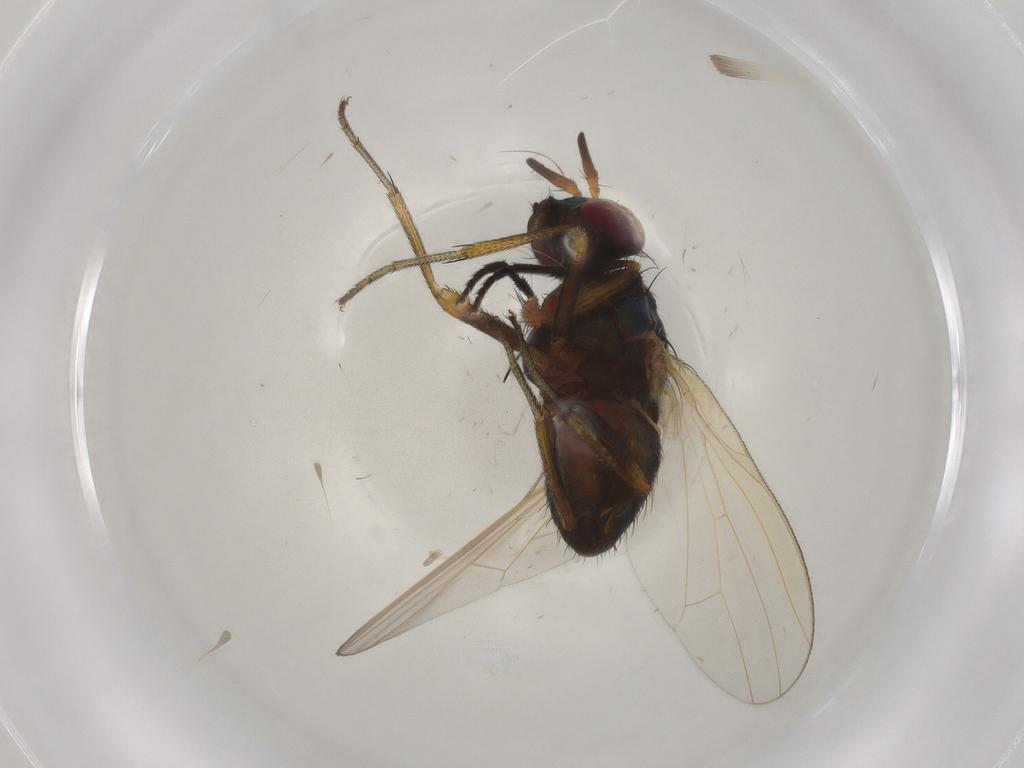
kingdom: Animalia
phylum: Arthropoda
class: Insecta
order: Diptera
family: Lauxaniidae
